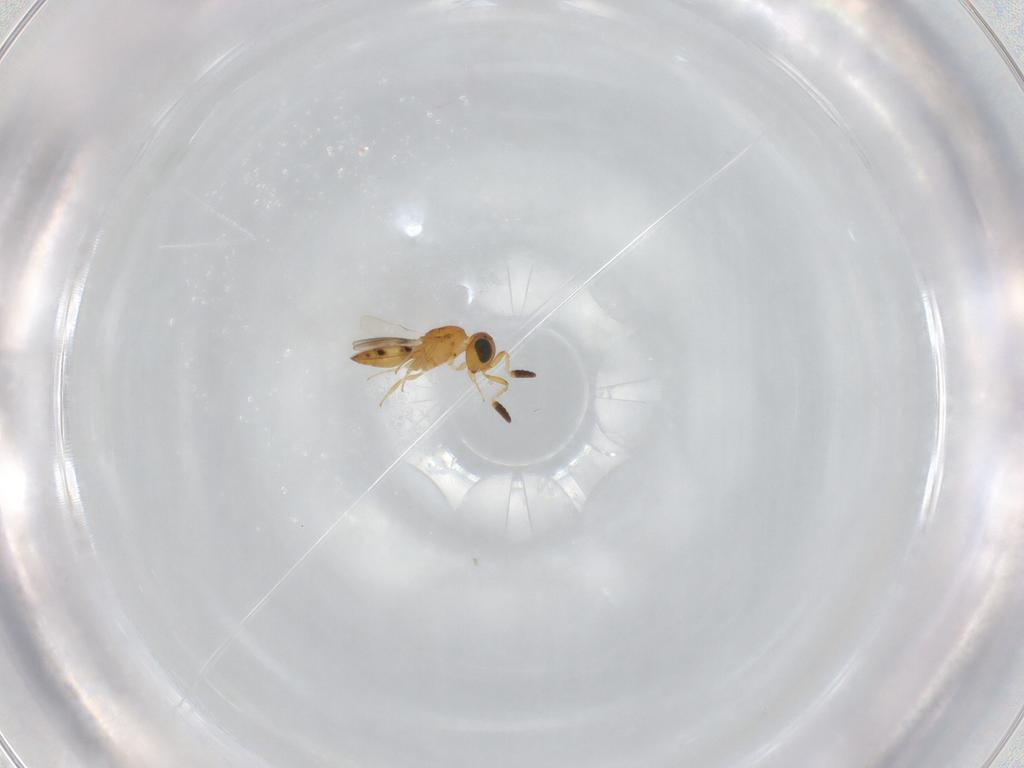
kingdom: Animalia
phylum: Arthropoda
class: Insecta
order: Hymenoptera
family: Scelionidae
